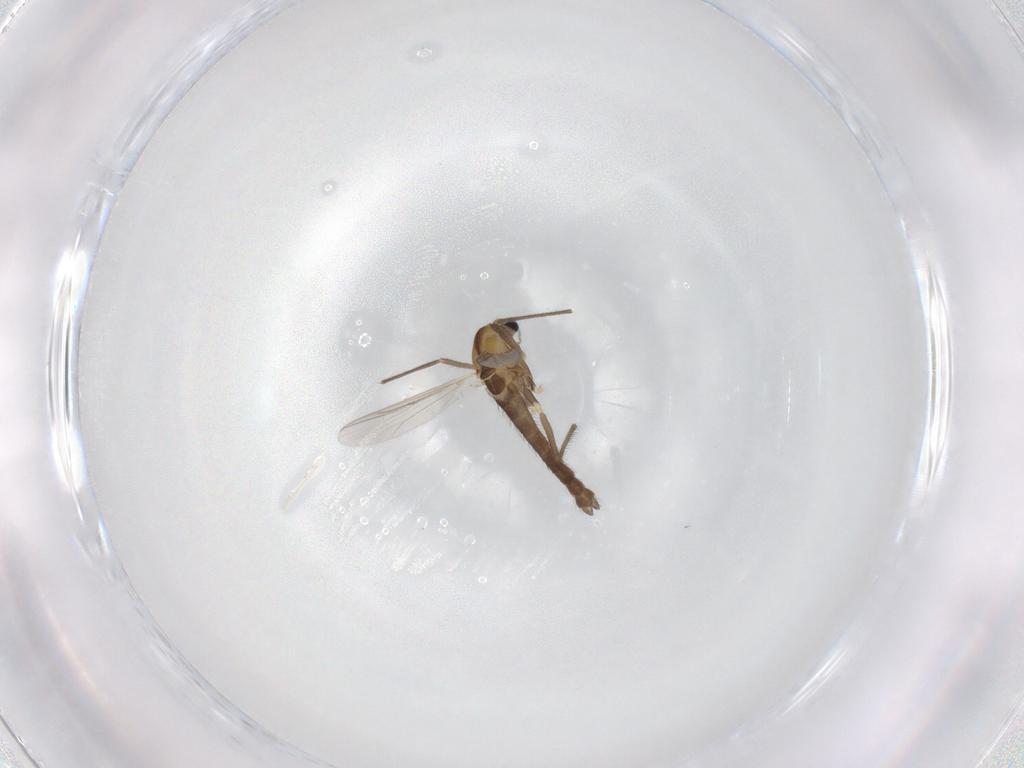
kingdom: Animalia
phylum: Arthropoda
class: Insecta
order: Diptera
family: Chironomidae
